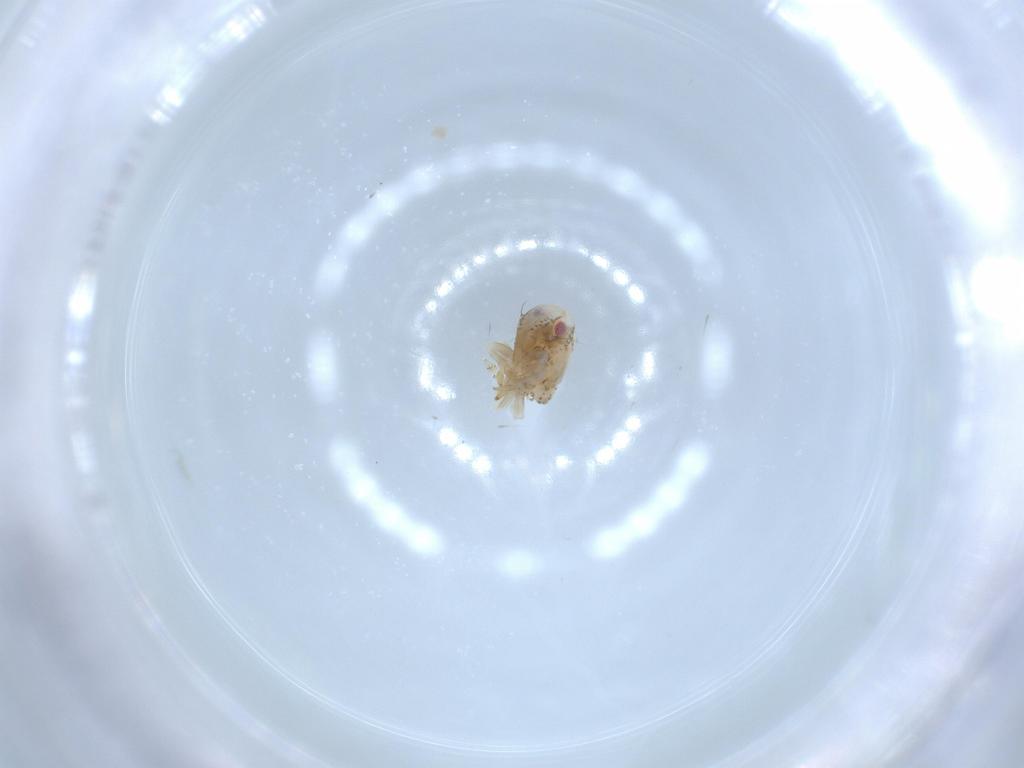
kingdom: Animalia
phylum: Arthropoda
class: Insecta
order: Hemiptera
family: Acanaloniidae
